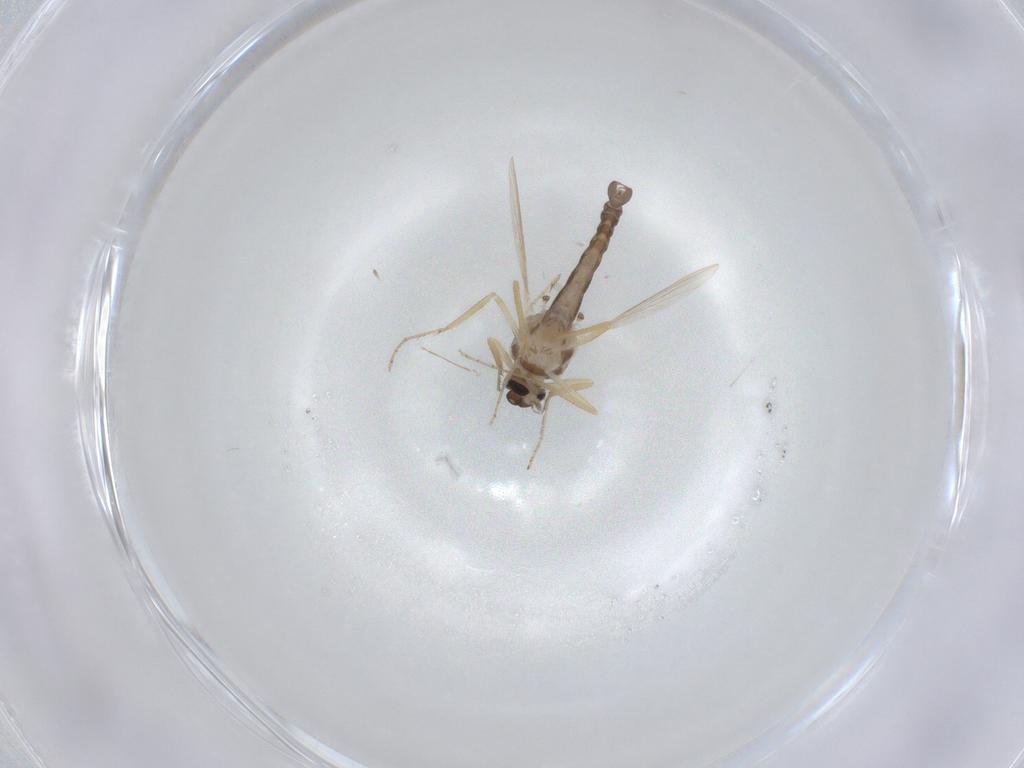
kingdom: Animalia
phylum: Arthropoda
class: Insecta
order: Diptera
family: Ceratopogonidae
